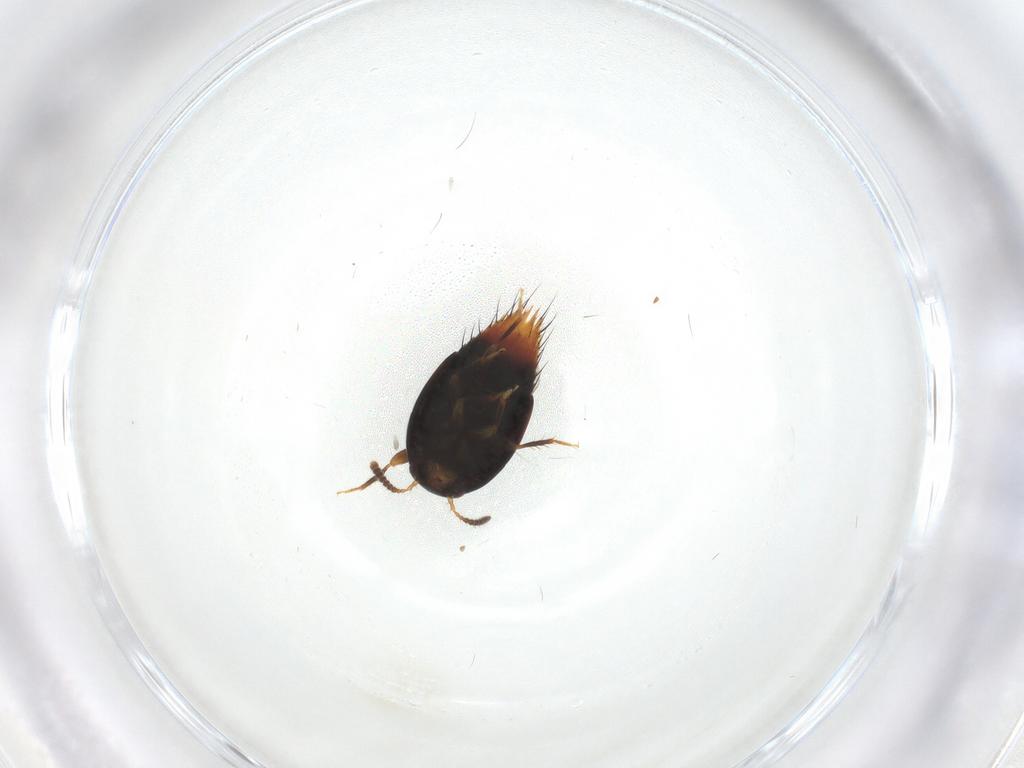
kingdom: Animalia
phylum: Arthropoda
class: Insecta
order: Coleoptera
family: Staphylinidae
